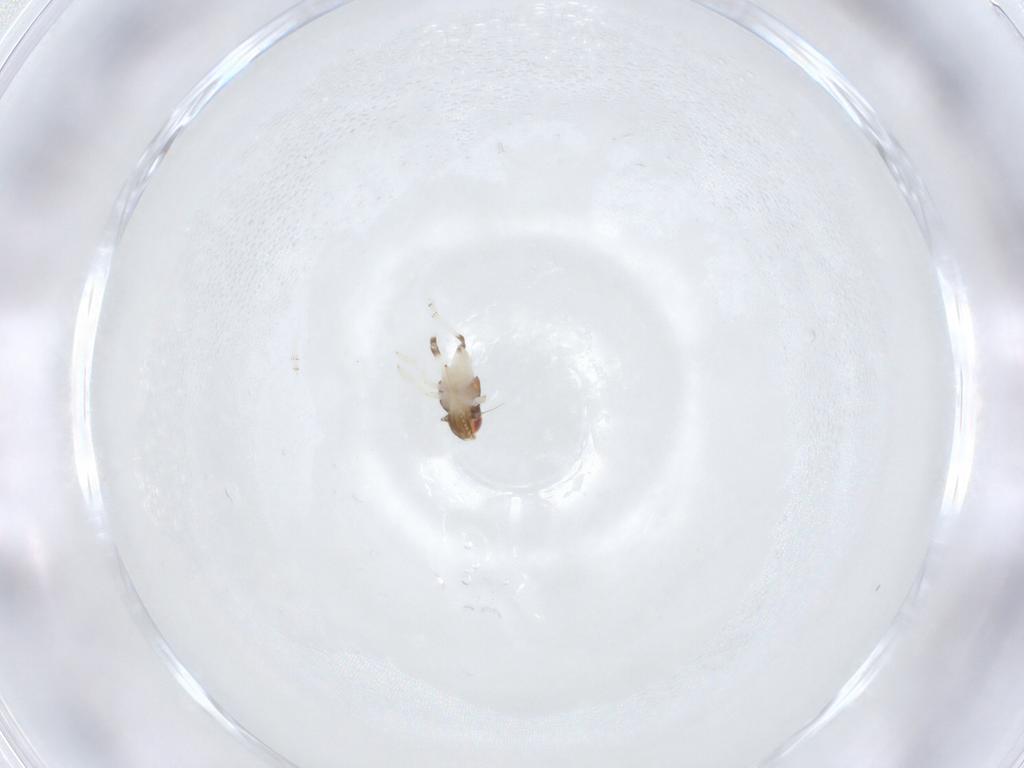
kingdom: Animalia
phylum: Arthropoda
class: Insecta
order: Hemiptera
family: Nogodinidae
